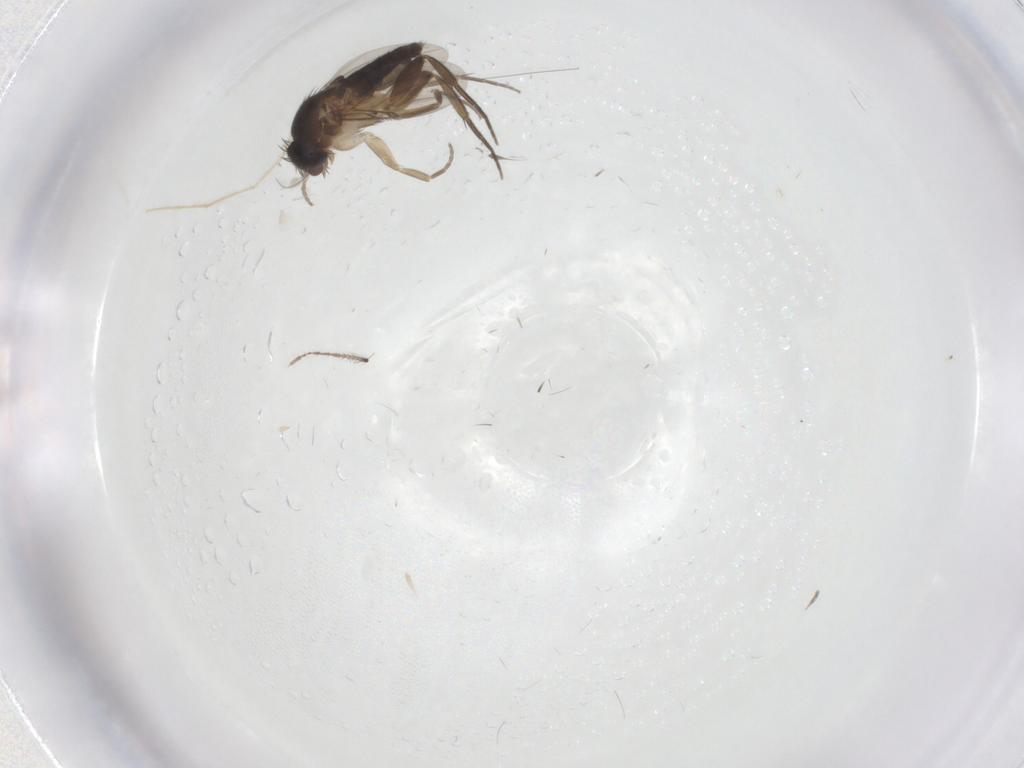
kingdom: Animalia
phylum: Arthropoda
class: Insecta
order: Diptera
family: Phoridae
